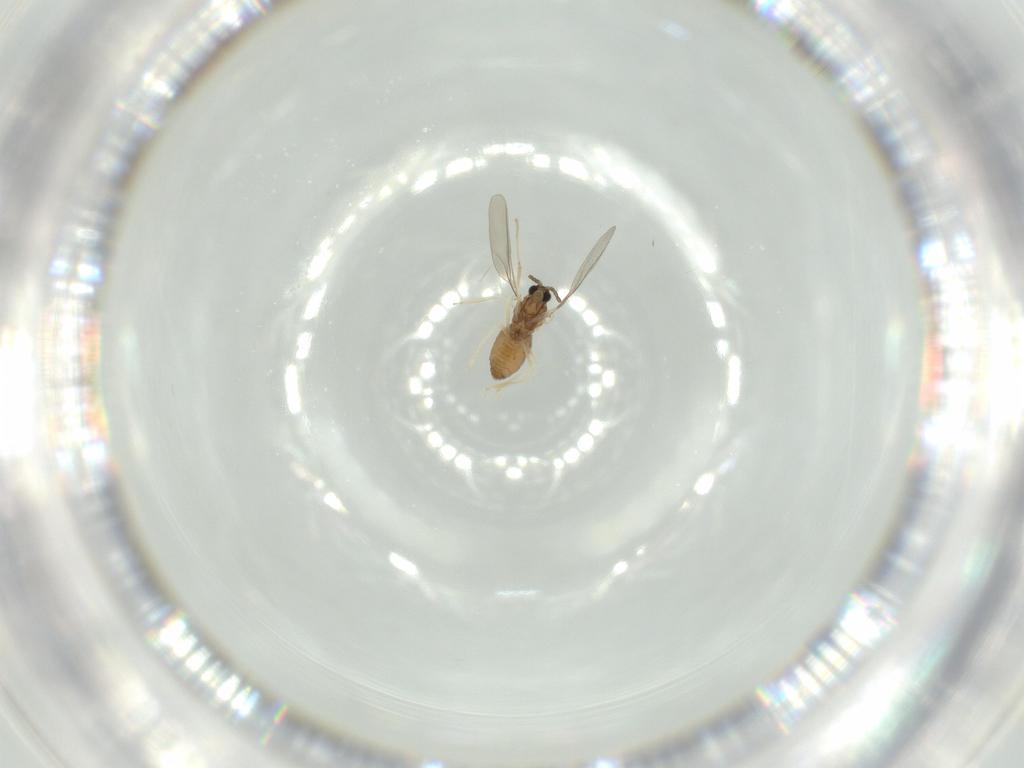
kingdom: Animalia
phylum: Arthropoda
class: Insecta
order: Diptera
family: Cecidomyiidae
